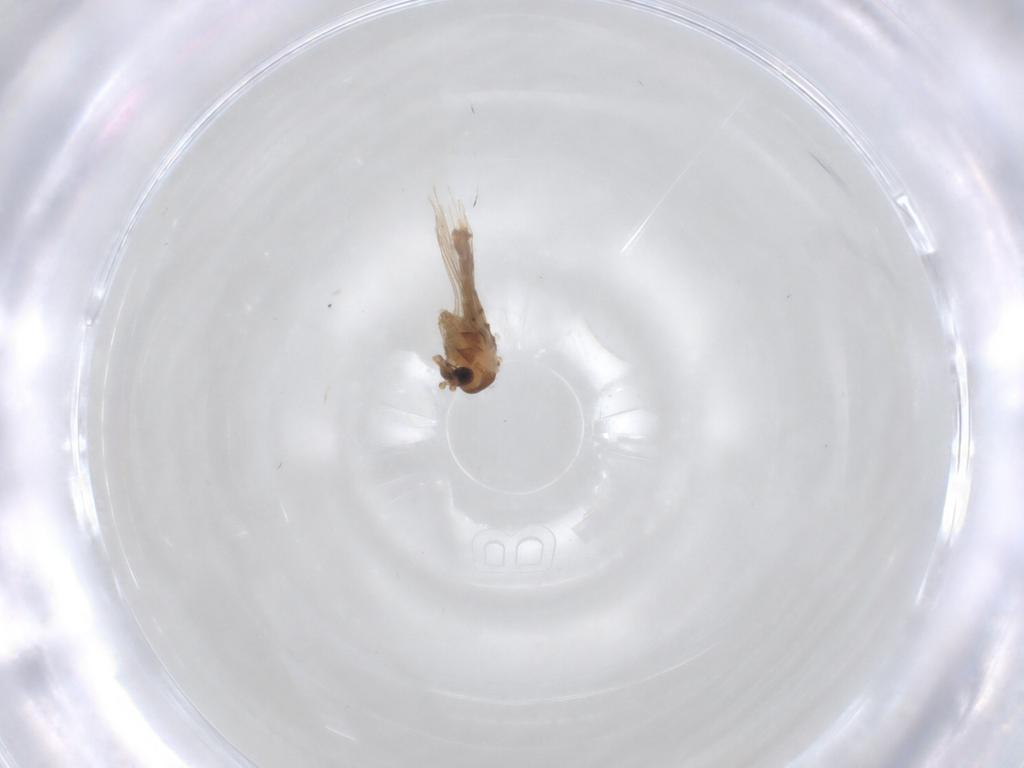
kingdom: Animalia
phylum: Arthropoda
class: Insecta
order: Diptera
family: Psychodidae
